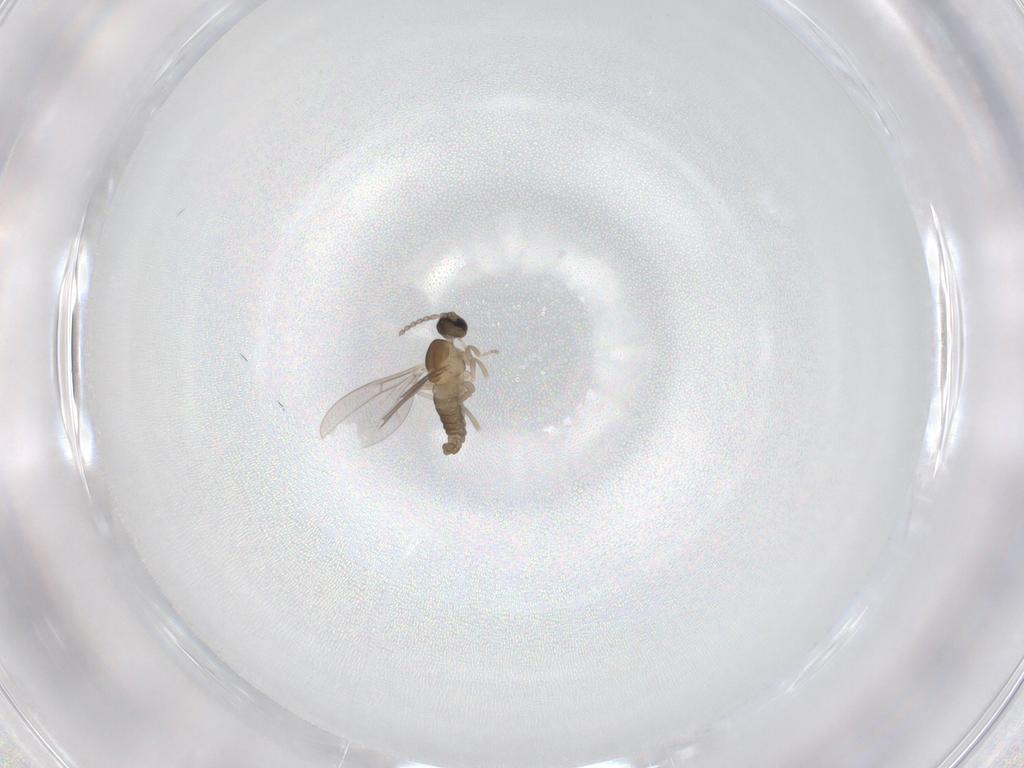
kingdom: Animalia
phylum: Arthropoda
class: Insecta
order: Diptera
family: Cecidomyiidae
